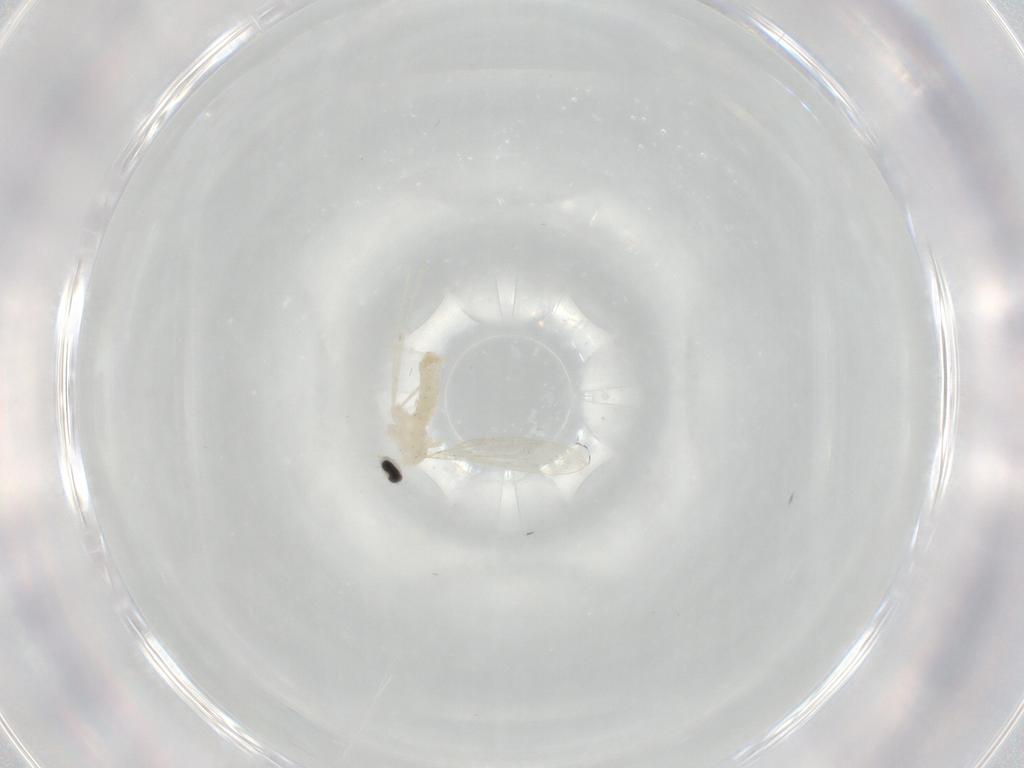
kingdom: Animalia
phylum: Arthropoda
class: Insecta
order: Diptera
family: Cecidomyiidae
